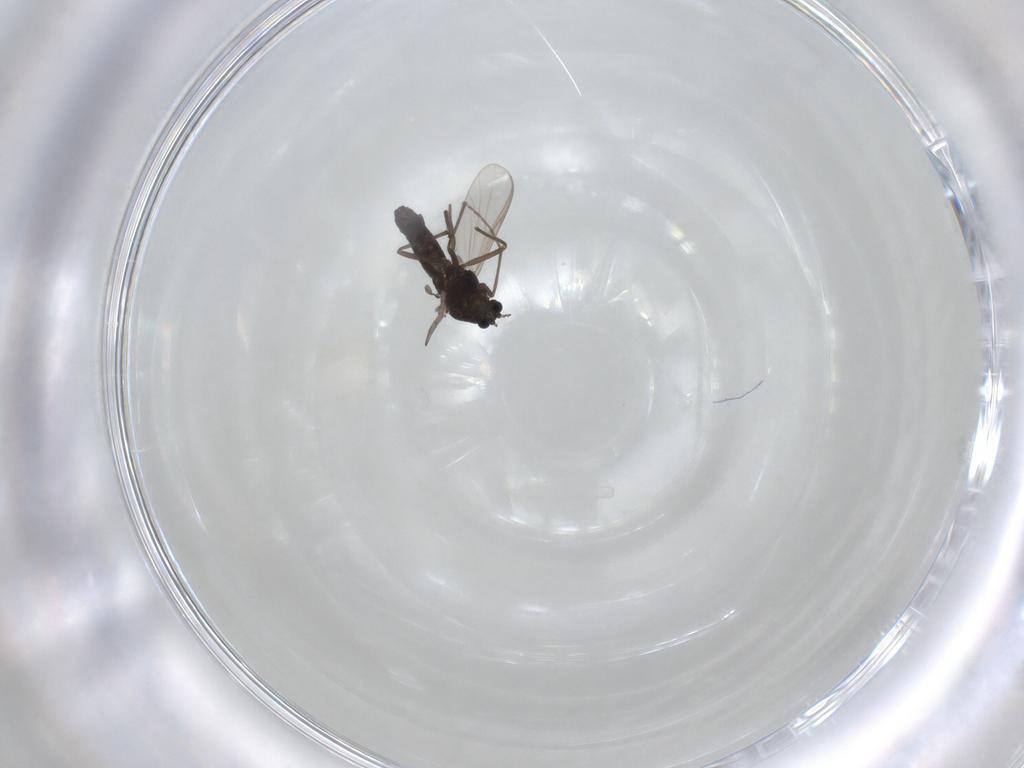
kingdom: Animalia
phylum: Arthropoda
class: Insecta
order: Diptera
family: Chironomidae
